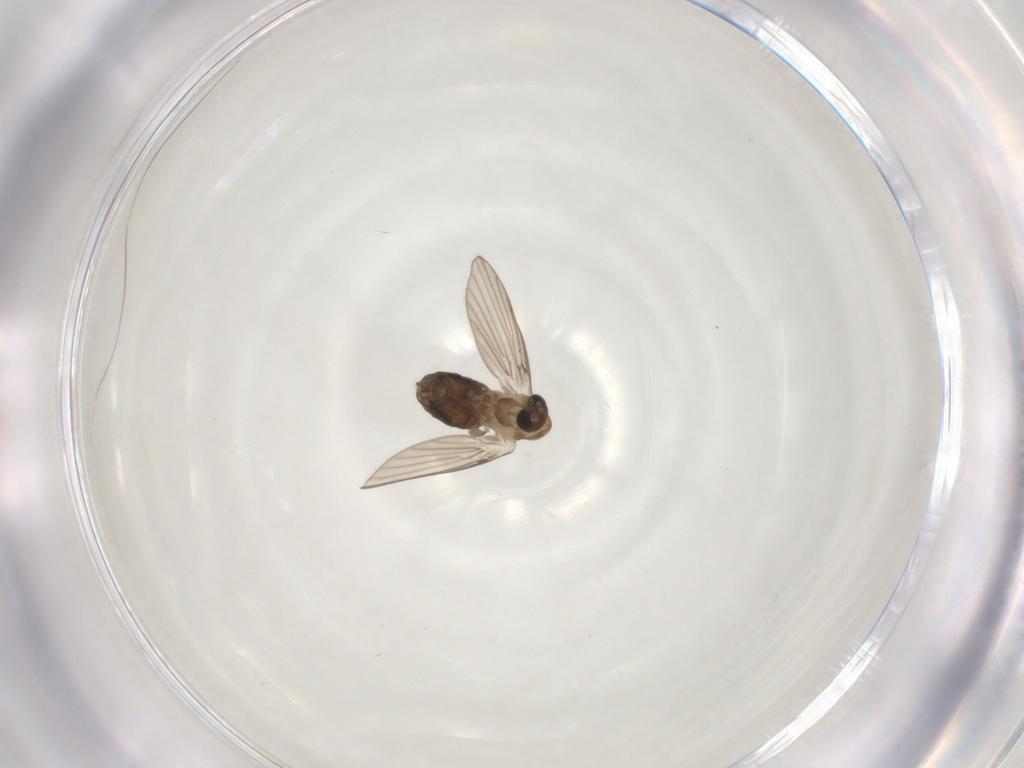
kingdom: Animalia
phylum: Arthropoda
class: Insecta
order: Diptera
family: Psychodidae
